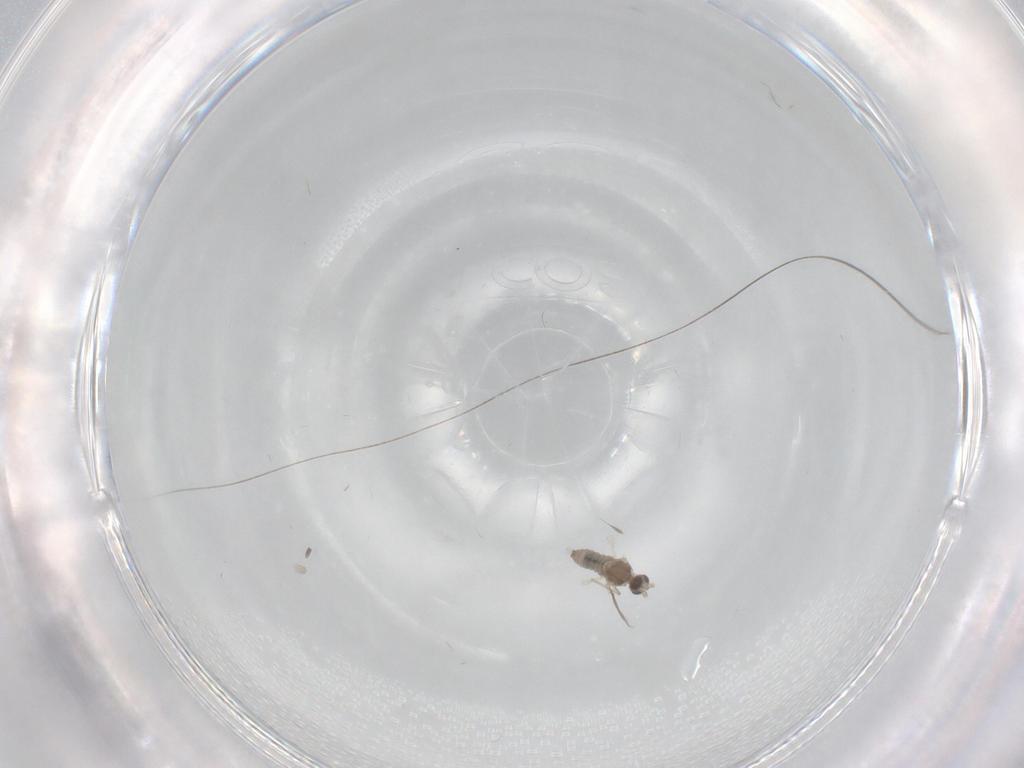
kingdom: Animalia
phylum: Arthropoda
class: Insecta
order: Diptera
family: Cecidomyiidae
